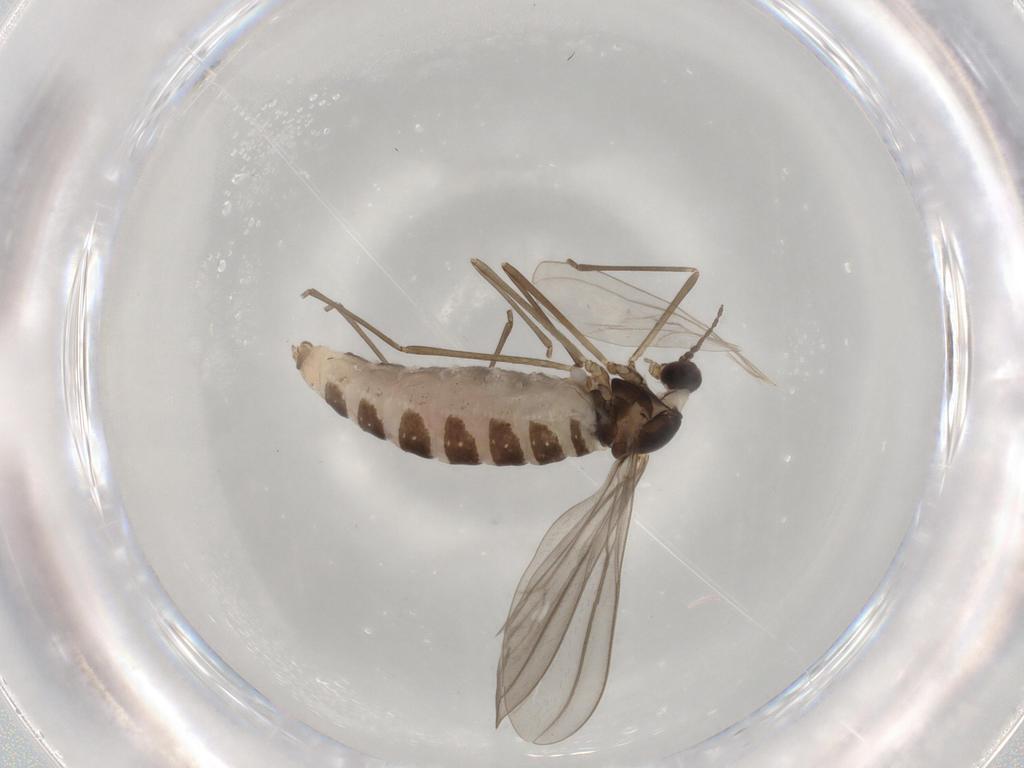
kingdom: Animalia
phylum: Arthropoda
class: Insecta
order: Diptera
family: Cecidomyiidae
